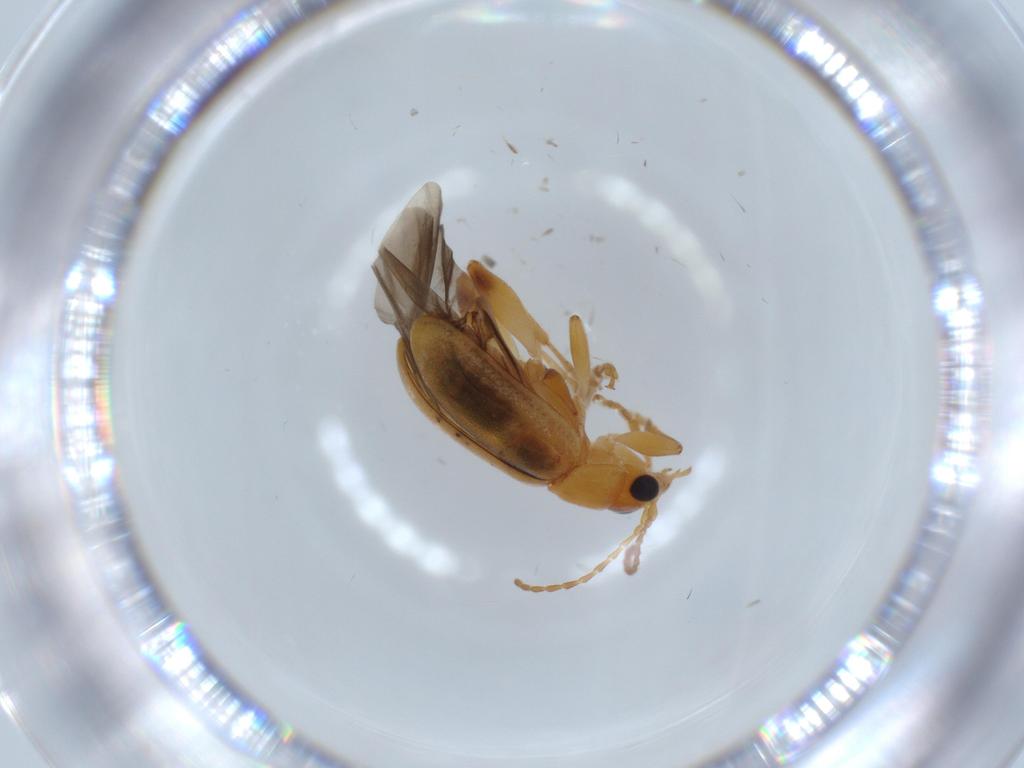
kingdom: Animalia
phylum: Arthropoda
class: Insecta
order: Coleoptera
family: Chrysomelidae
